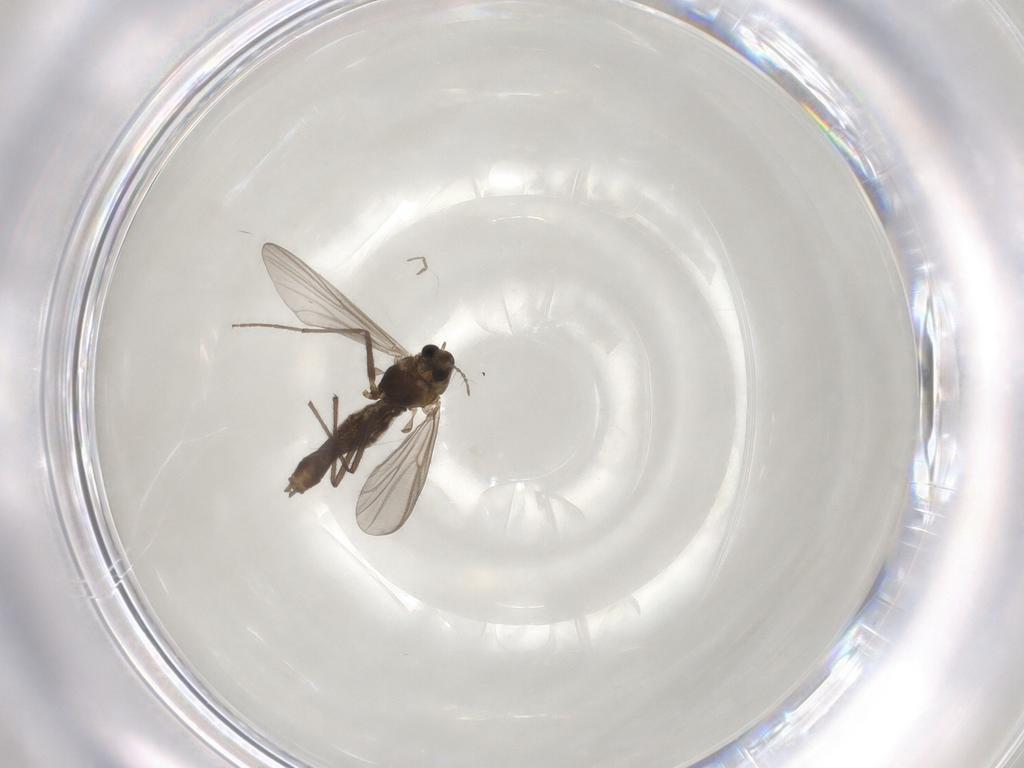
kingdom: Animalia
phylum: Arthropoda
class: Insecta
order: Diptera
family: Chironomidae
